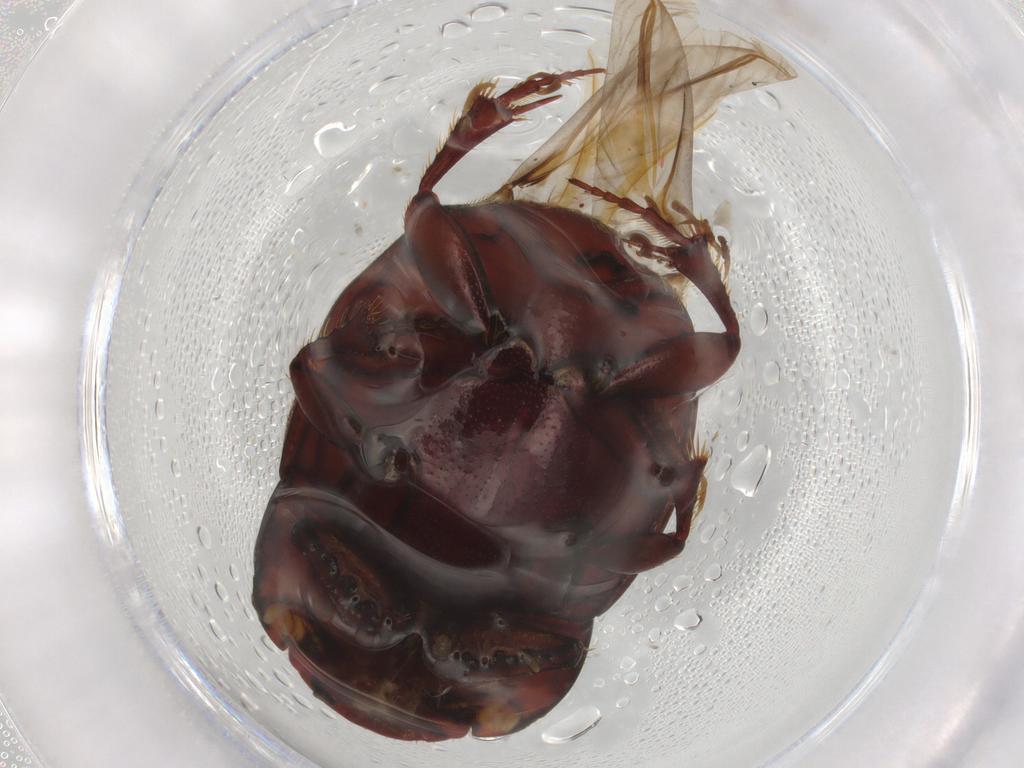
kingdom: Animalia
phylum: Arthropoda
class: Insecta
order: Coleoptera
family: Scarabaeidae
